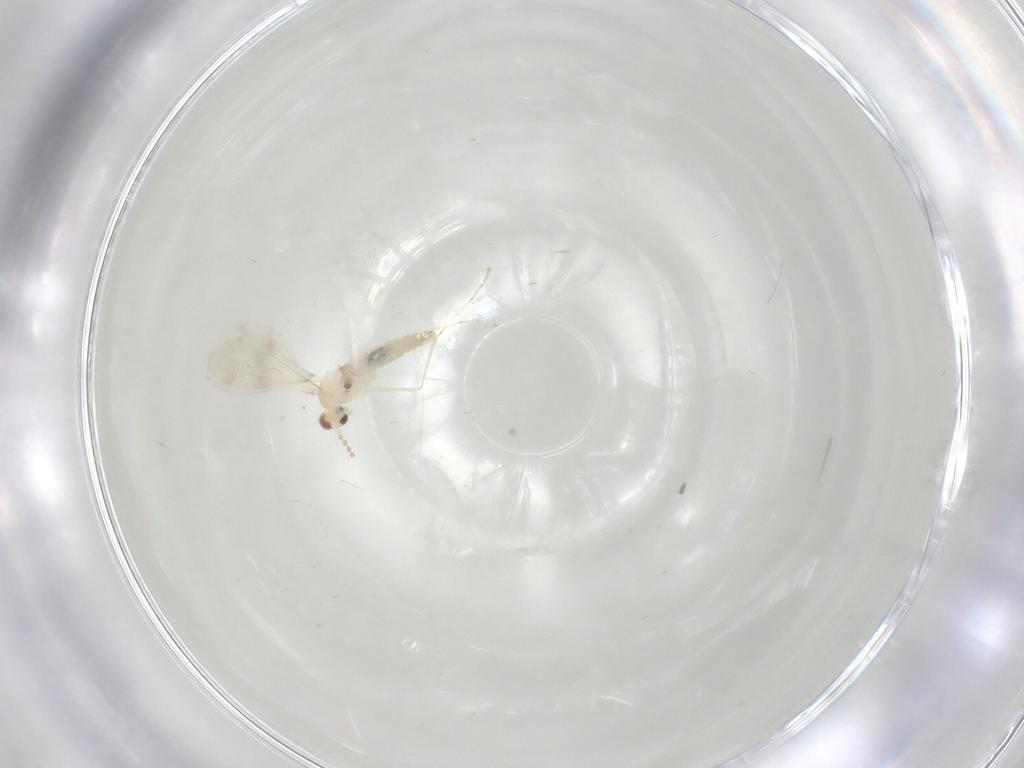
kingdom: Animalia
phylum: Arthropoda
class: Insecta
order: Diptera
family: Cecidomyiidae
